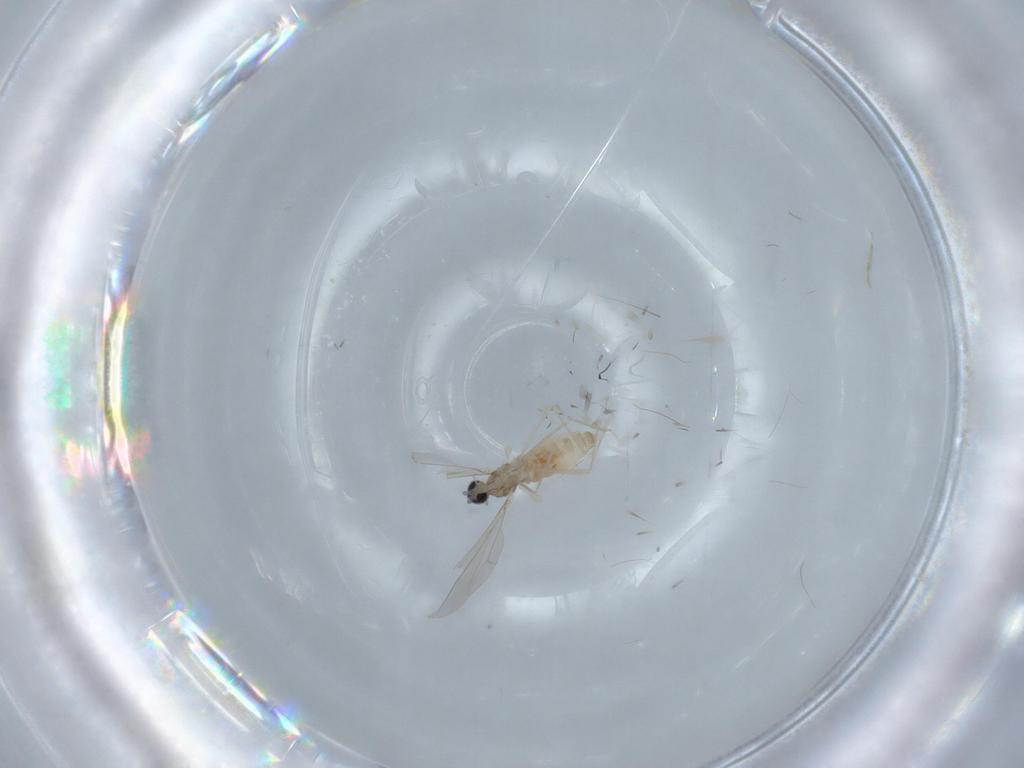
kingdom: Animalia
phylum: Arthropoda
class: Insecta
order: Diptera
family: Cecidomyiidae
